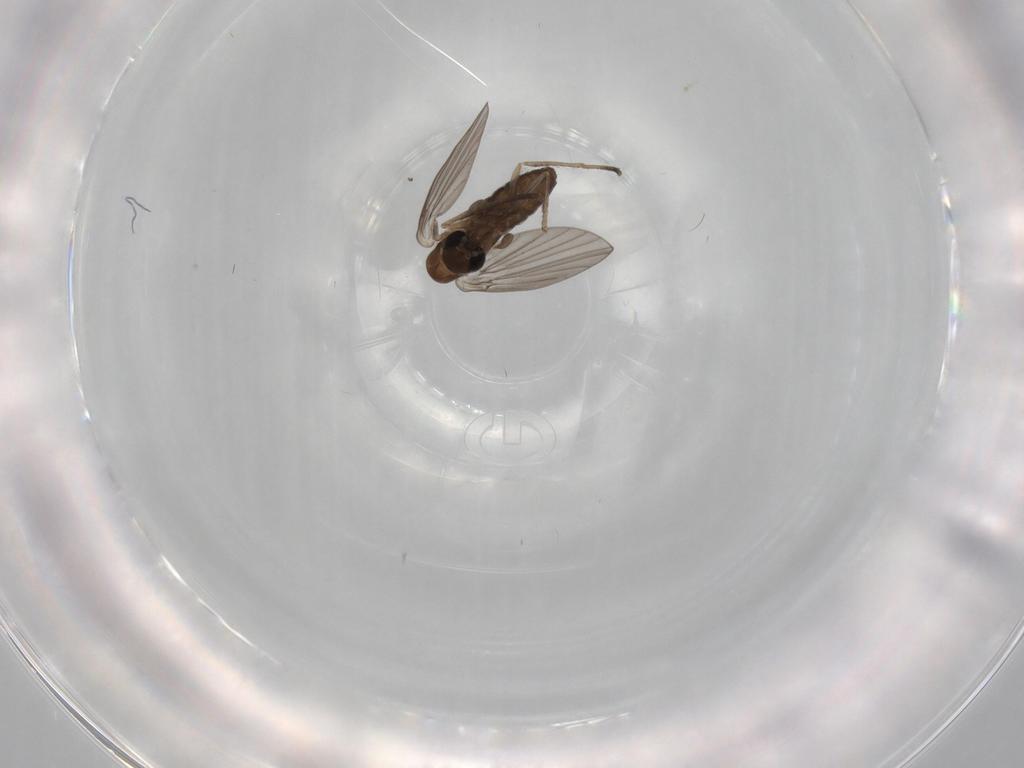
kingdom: Animalia
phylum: Arthropoda
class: Insecta
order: Diptera
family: Psychodidae
